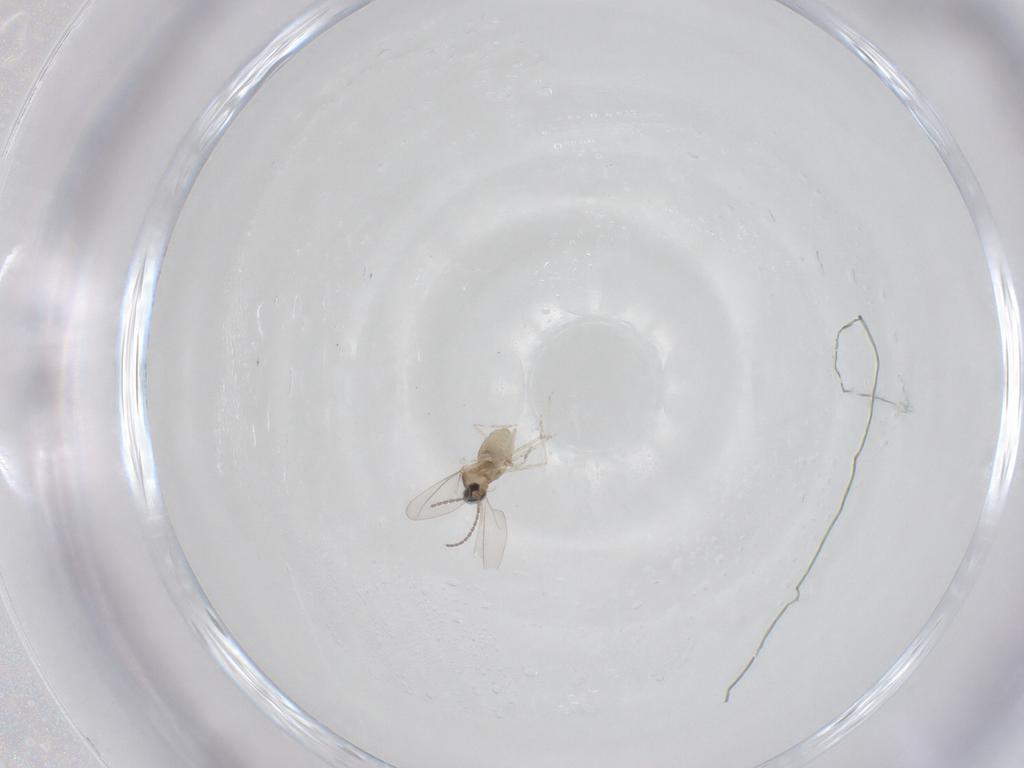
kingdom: Animalia
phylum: Arthropoda
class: Insecta
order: Diptera
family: Cecidomyiidae
